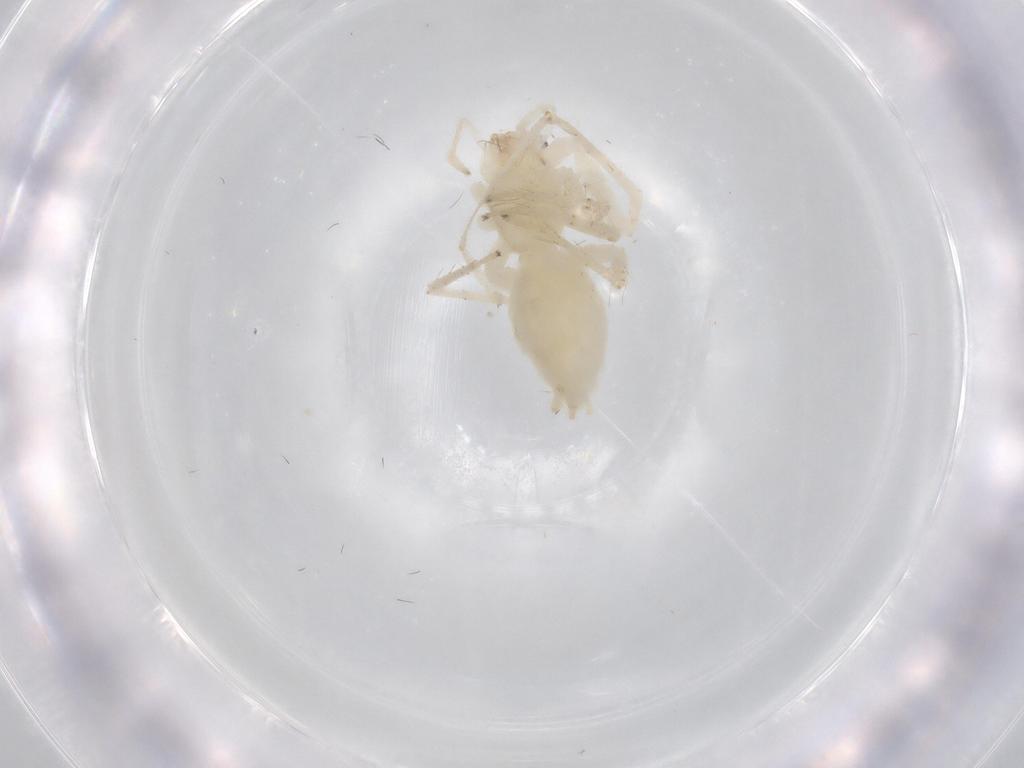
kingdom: Animalia
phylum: Arthropoda
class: Arachnida
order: Araneae
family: Anyphaenidae
